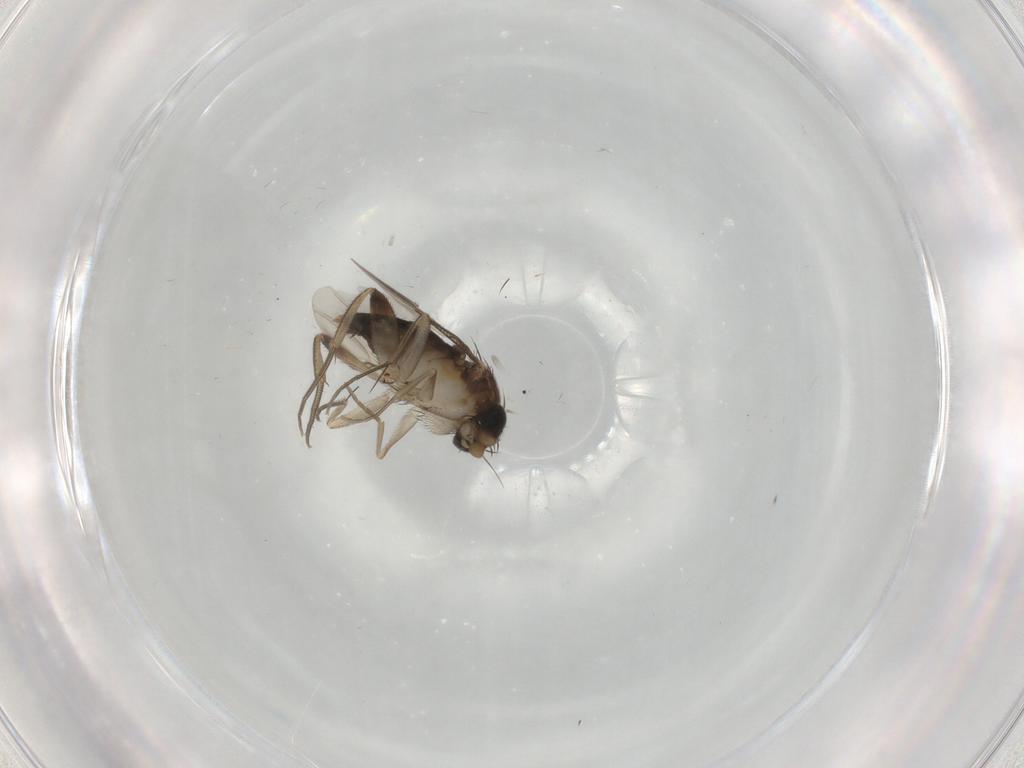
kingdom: Animalia
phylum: Arthropoda
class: Insecta
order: Diptera
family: Phoridae
